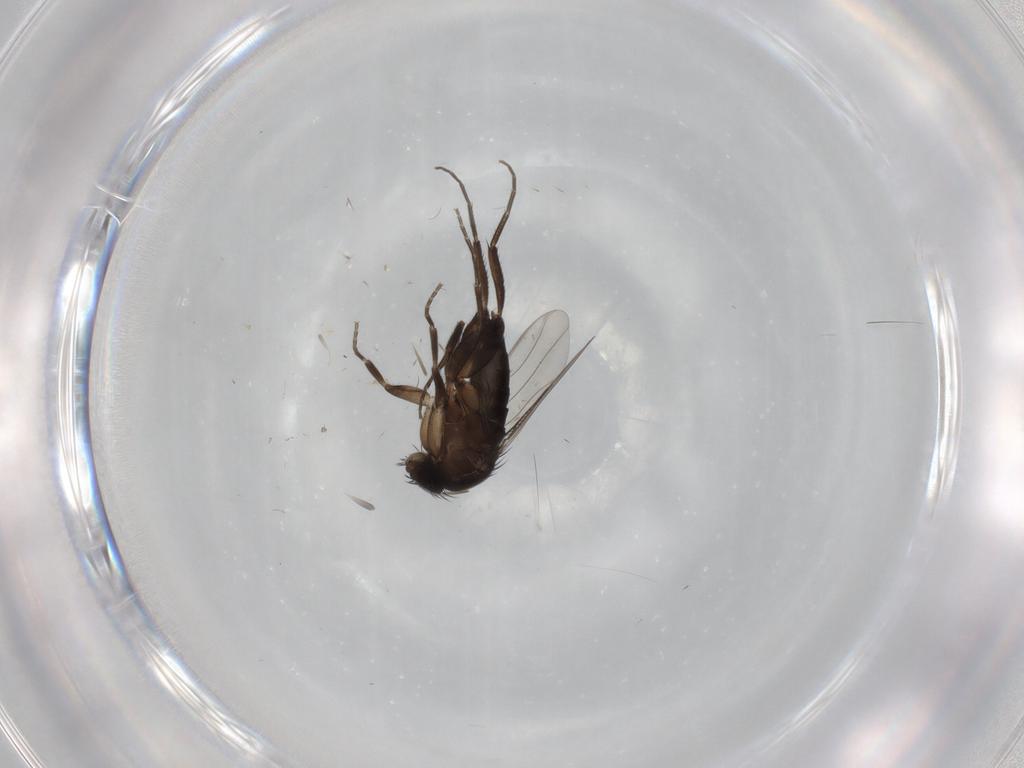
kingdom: Animalia
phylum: Arthropoda
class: Insecta
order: Diptera
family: Phoridae
